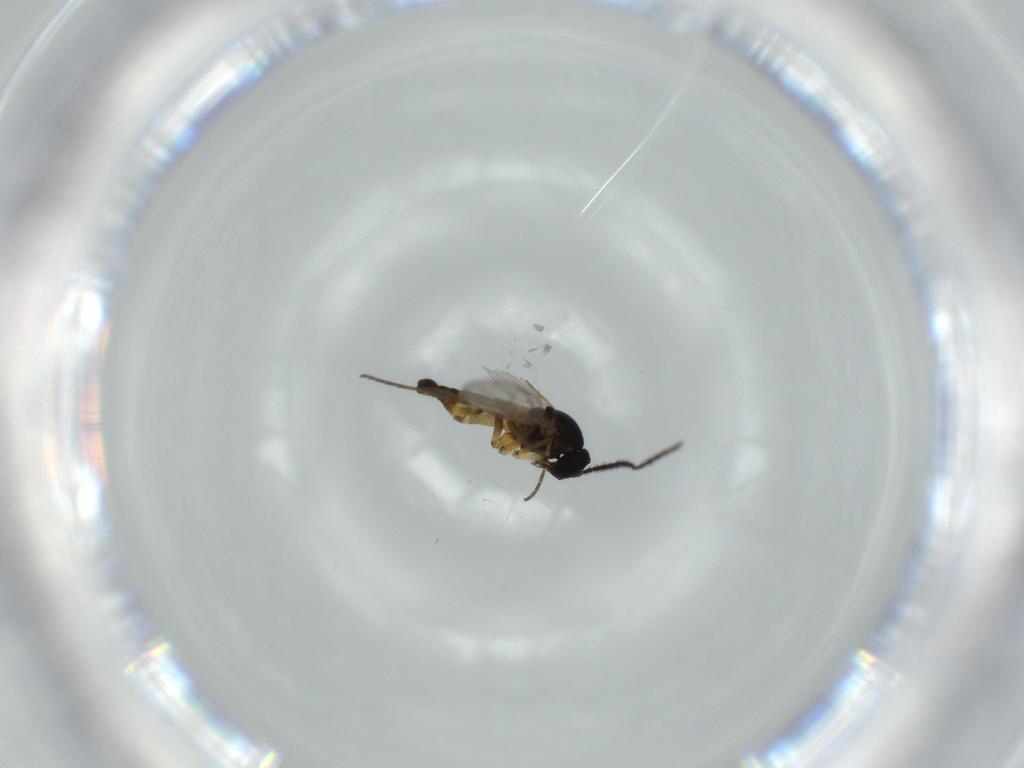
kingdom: Animalia
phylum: Arthropoda
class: Insecta
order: Diptera
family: Sciaridae
